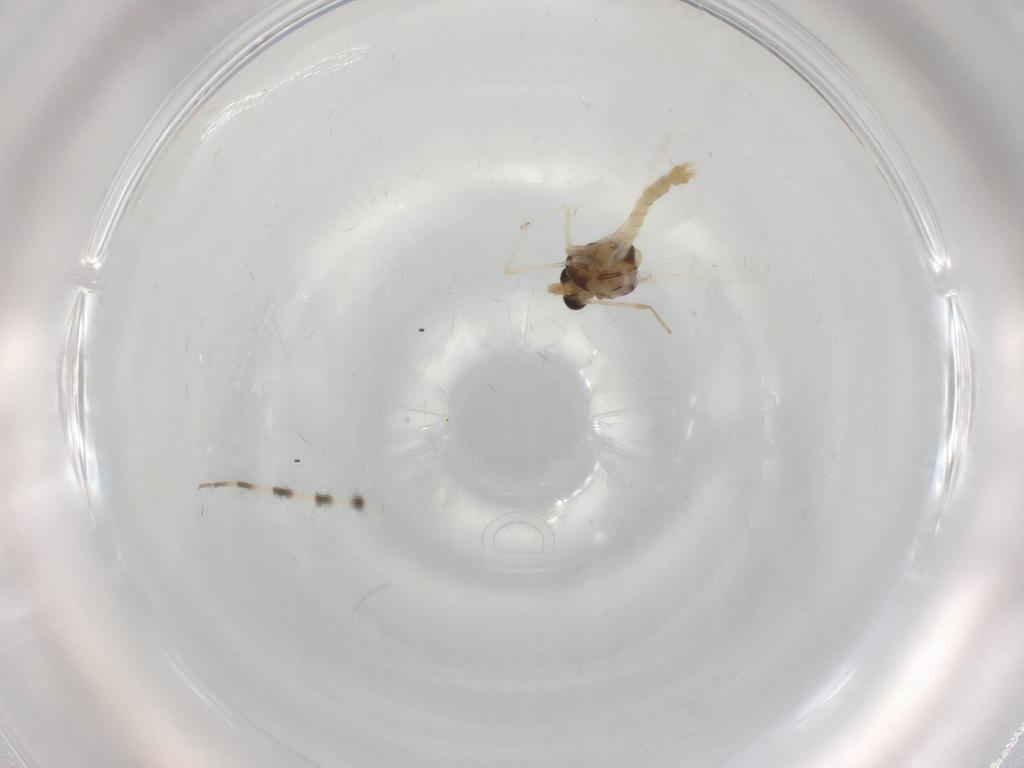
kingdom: Animalia
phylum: Arthropoda
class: Insecta
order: Diptera
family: Chironomidae
